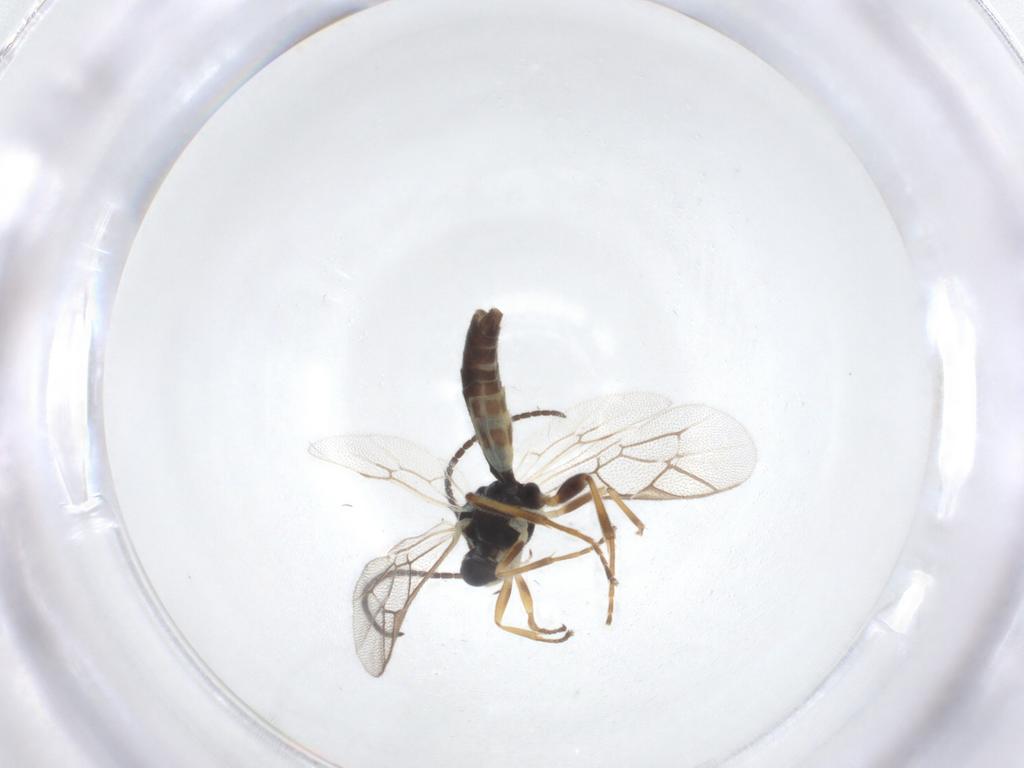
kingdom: Animalia
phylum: Arthropoda
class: Insecta
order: Hymenoptera
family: Ichneumonidae
